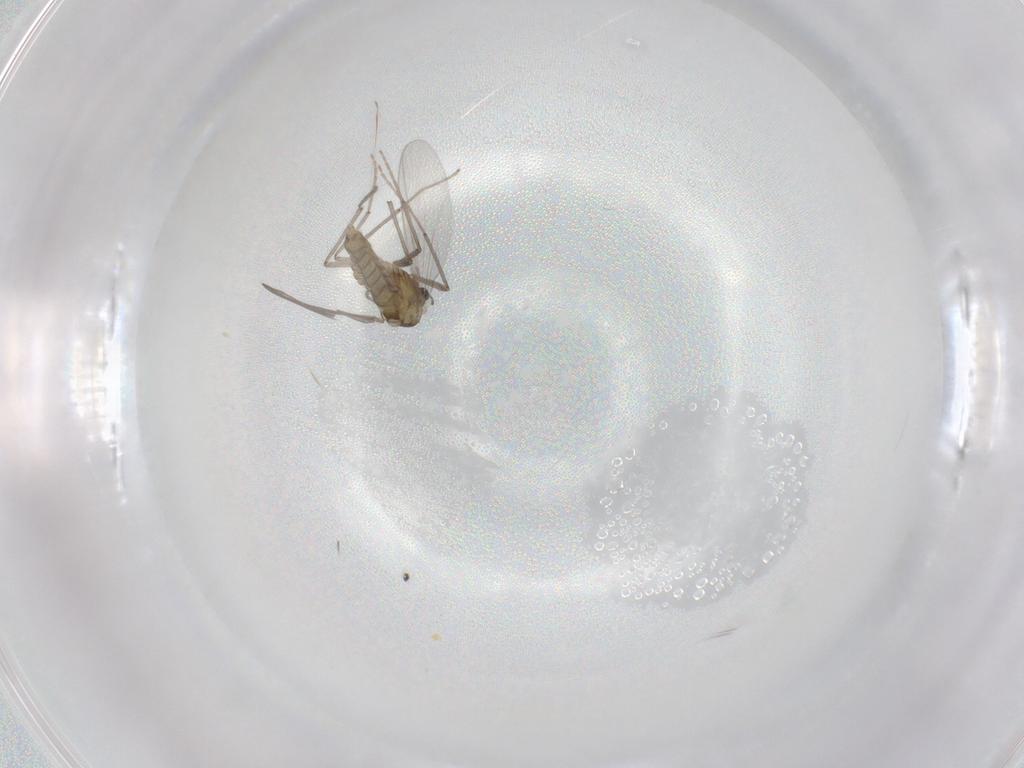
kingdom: Animalia
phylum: Arthropoda
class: Insecta
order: Diptera
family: Chironomidae
